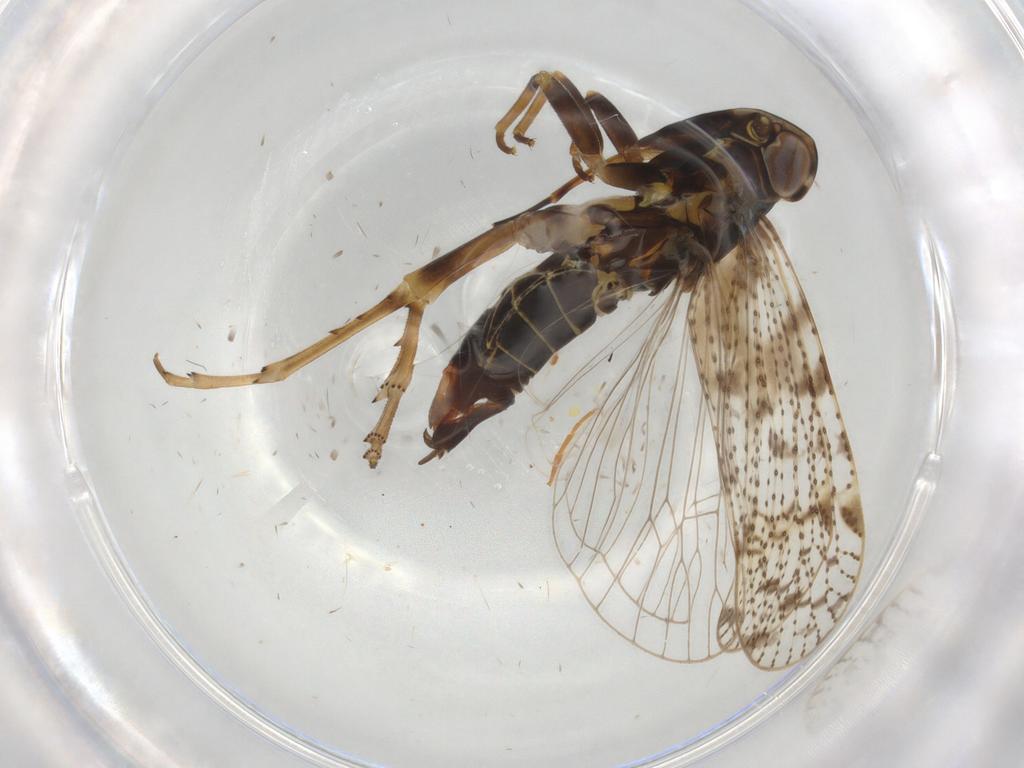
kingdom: Animalia
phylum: Arthropoda
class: Insecta
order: Hemiptera
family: Cixiidae
